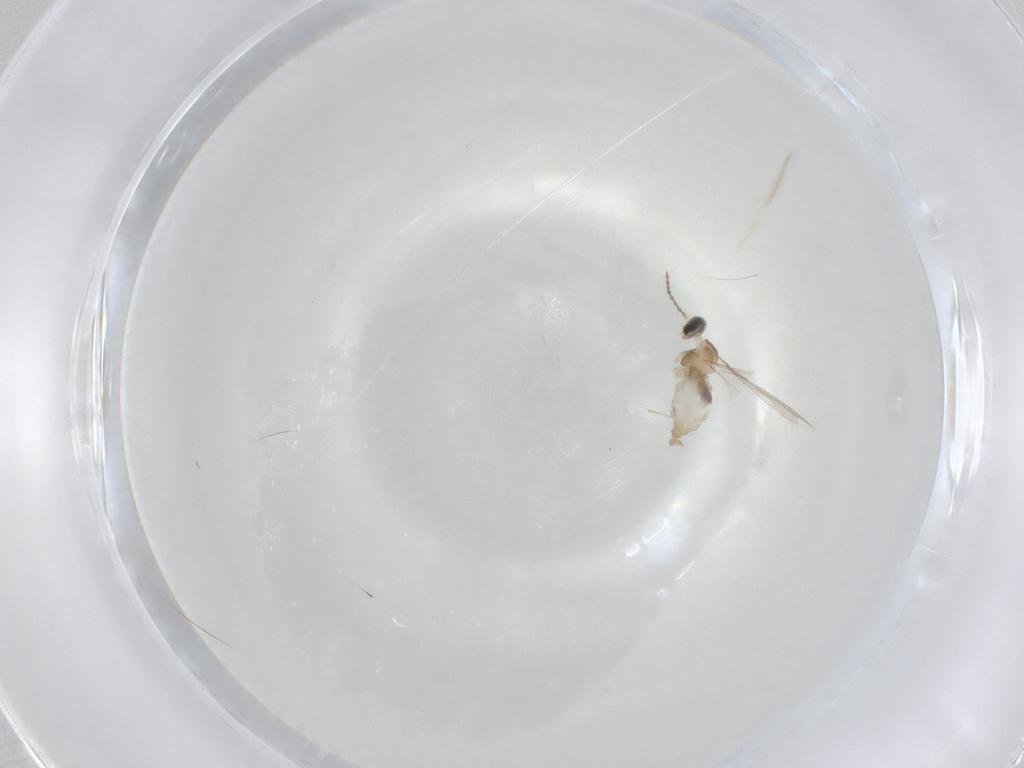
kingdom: Animalia
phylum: Arthropoda
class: Insecta
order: Diptera
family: Cecidomyiidae
